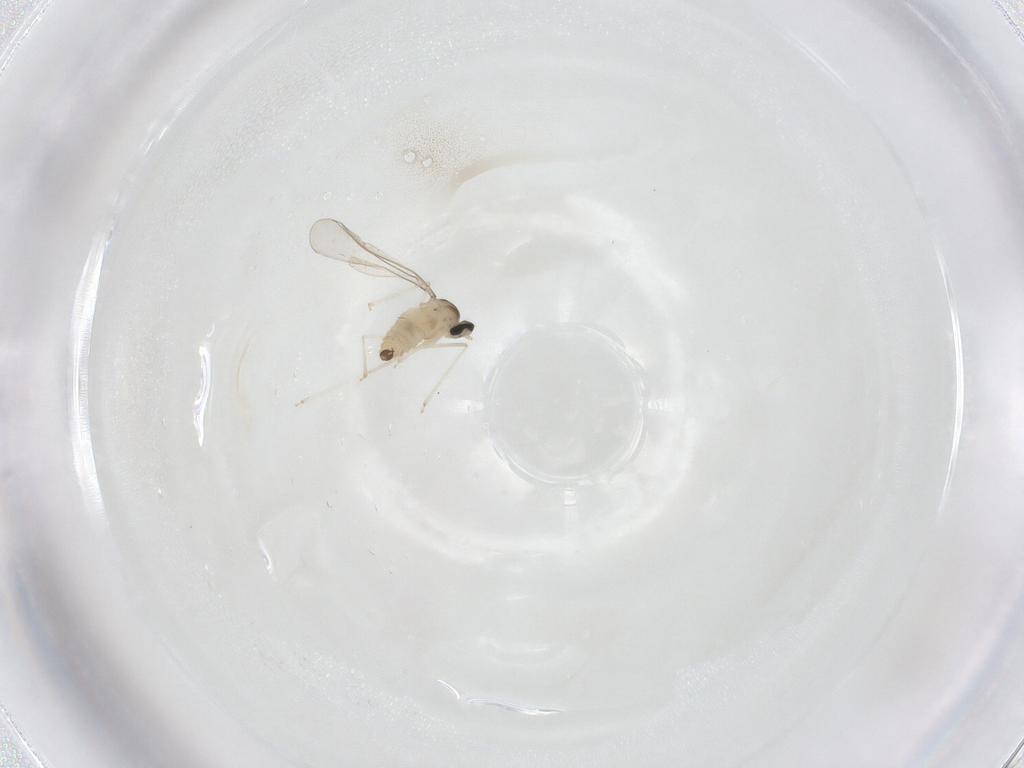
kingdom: Animalia
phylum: Arthropoda
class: Insecta
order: Diptera
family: Cecidomyiidae
